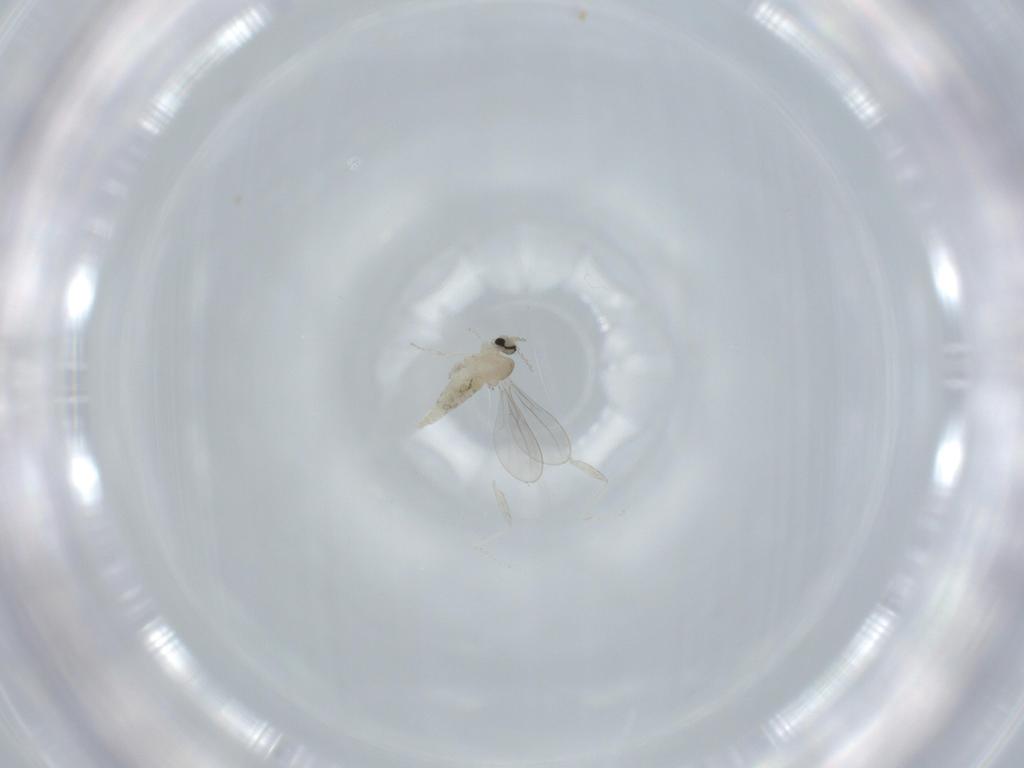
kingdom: Animalia
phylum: Arthropoda
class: Insecta
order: Diptera
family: Cecidomyiidae
